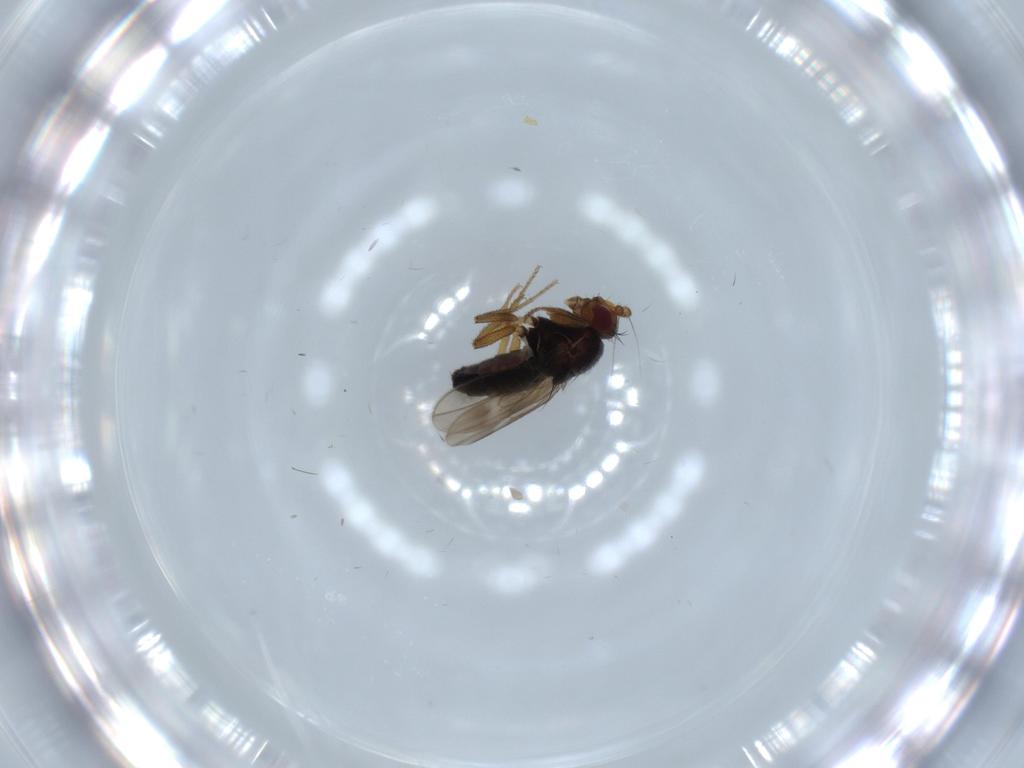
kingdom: Animalia
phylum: Arthropoda
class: Insecta
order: Diptera
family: Sphaeroceridae
